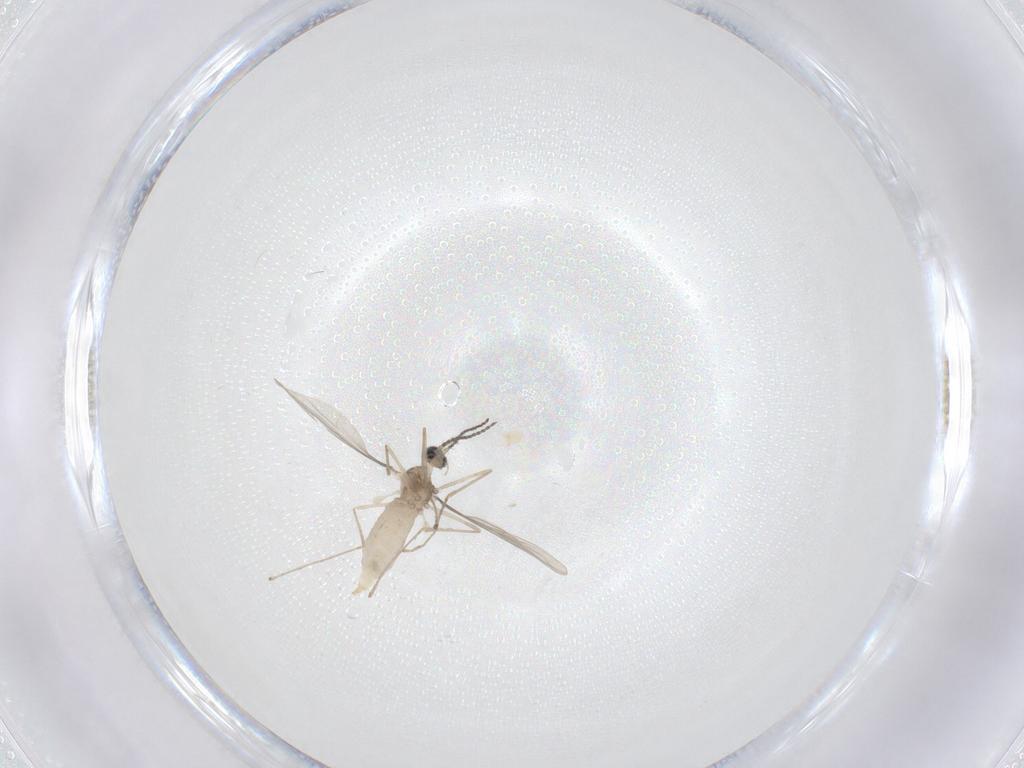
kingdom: Animalia
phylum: Arthropoda
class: Insecta
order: Diptera
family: Cecidomyiidae
